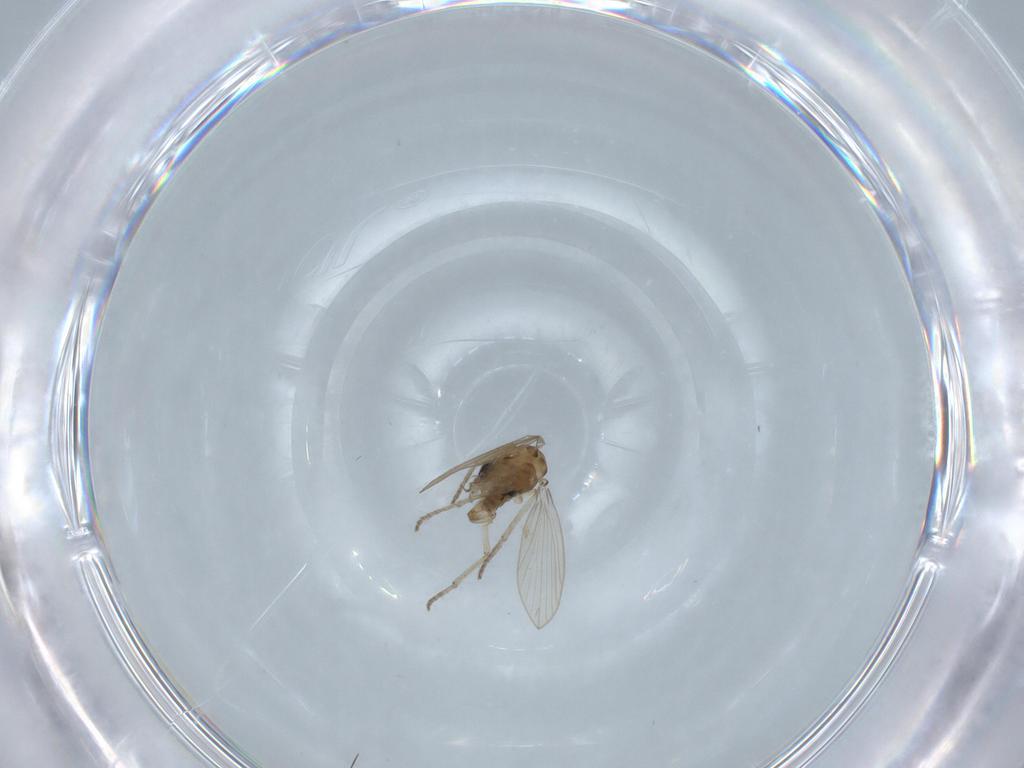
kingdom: Animalia
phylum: Arthropoda
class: Insecta
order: Diptera
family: Psychodidae
